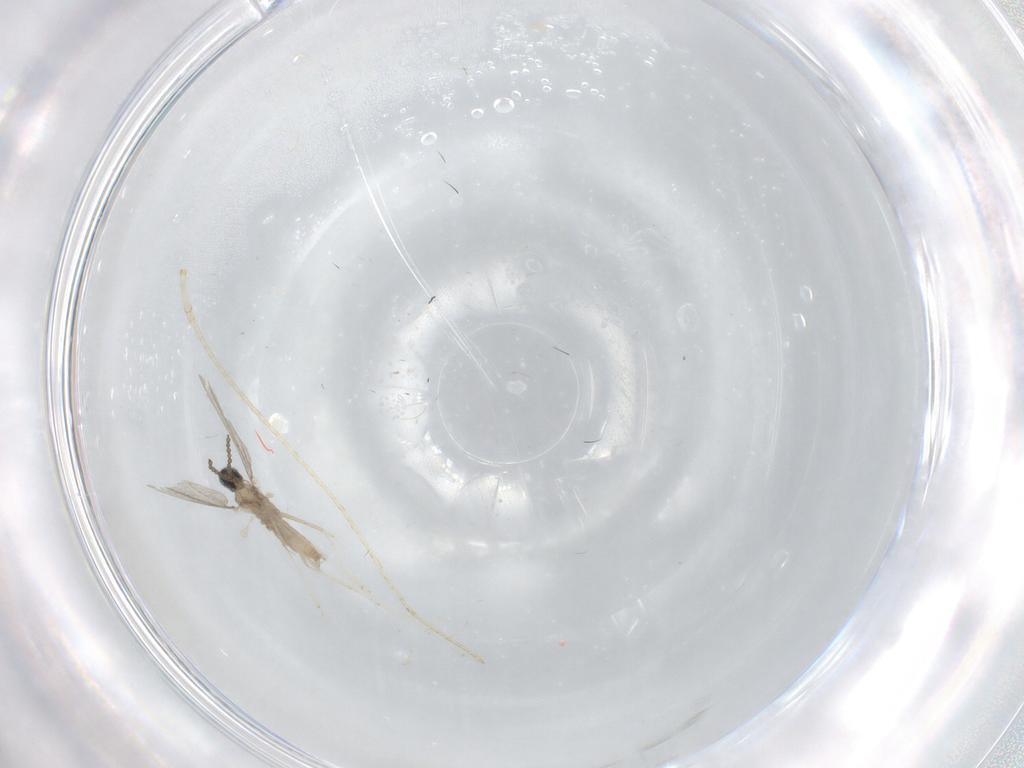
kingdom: Animalia
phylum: Arthropoda
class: Insecta
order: Diptera
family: Cecidomyiidae
